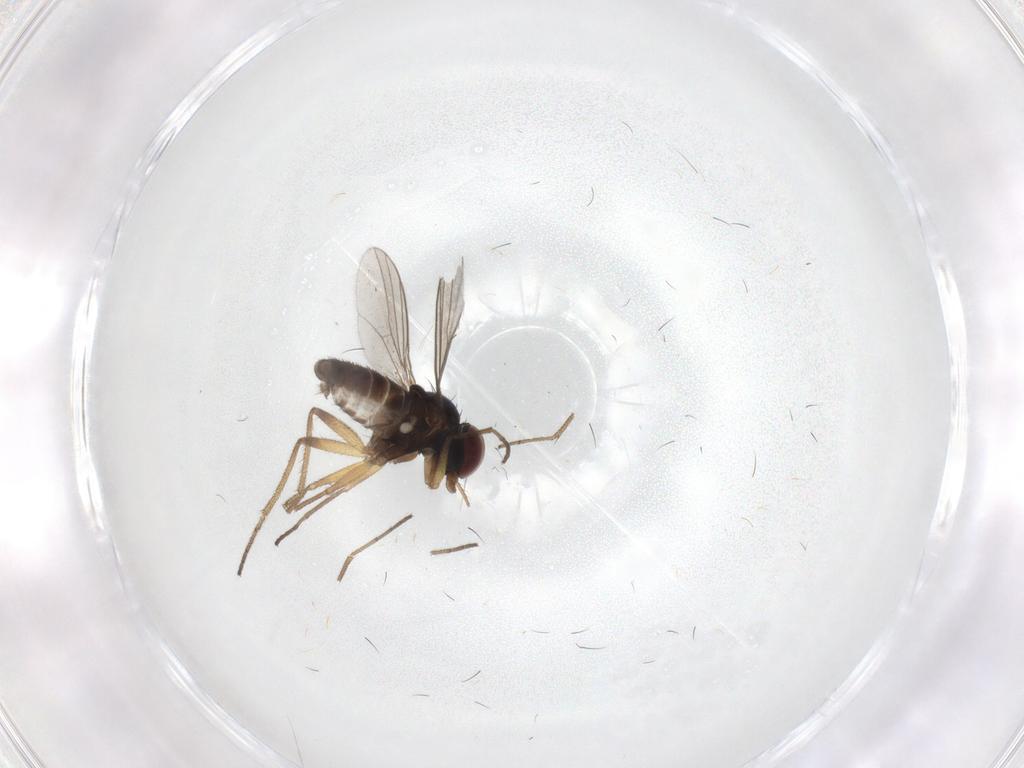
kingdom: Animalia
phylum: Arthropoda
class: Insecta
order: Diptera
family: Dolichopodidae
